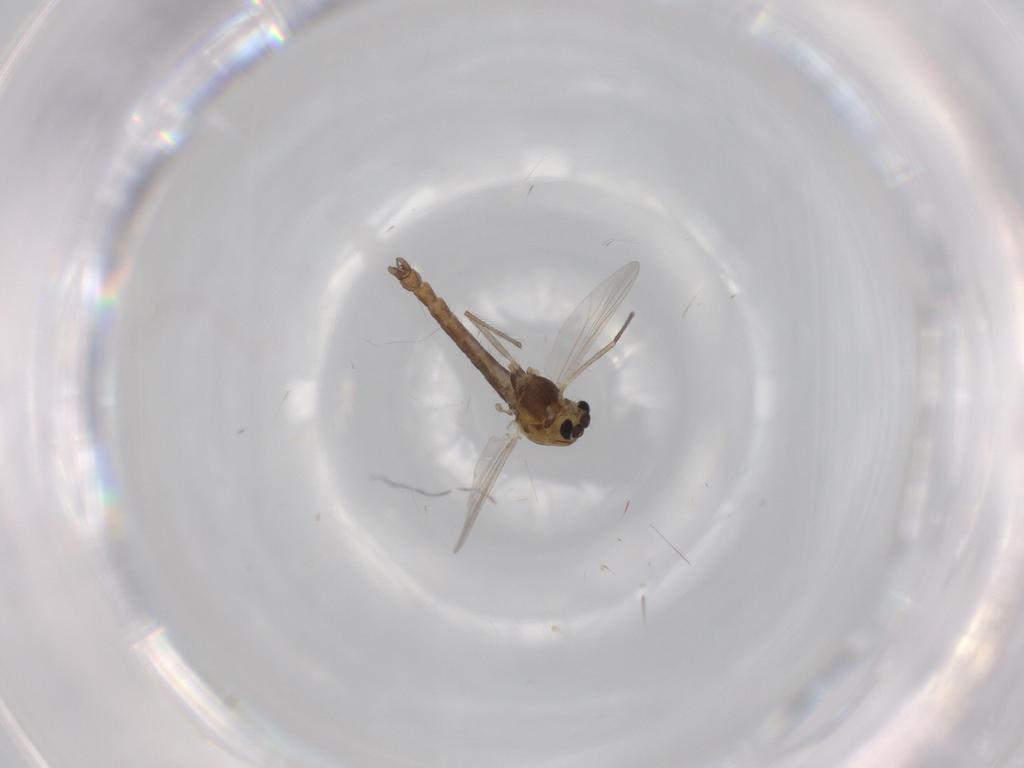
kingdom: Animalia
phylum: Arthropoda
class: Insecta
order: Diptera
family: Chironomidae
